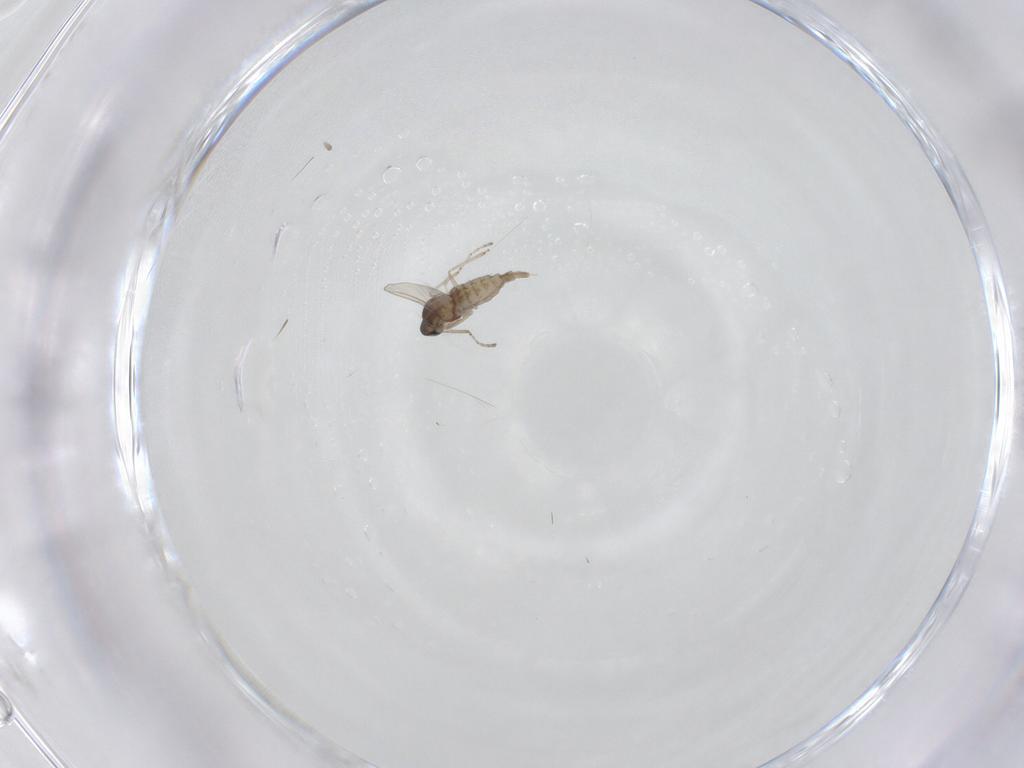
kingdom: Animalia
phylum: Arthropoda
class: Insecta
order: Diptera
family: Cecidomyiidae
